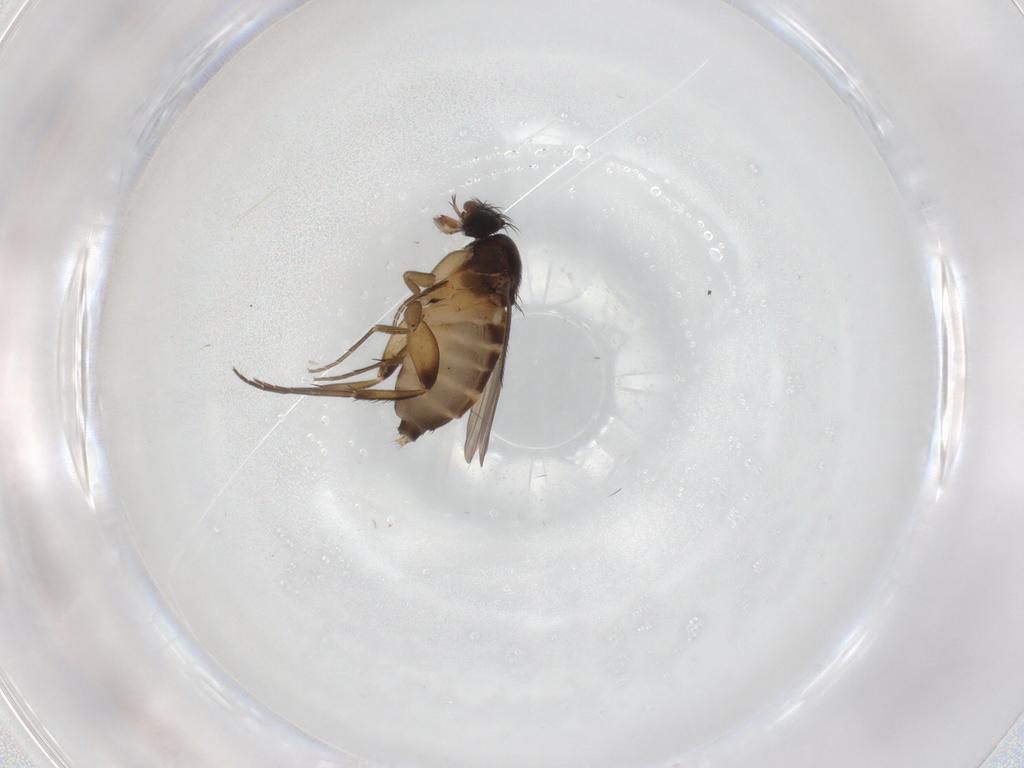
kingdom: Animalia
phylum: Arthropoda
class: Insecta
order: Diptera
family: Phoridae
